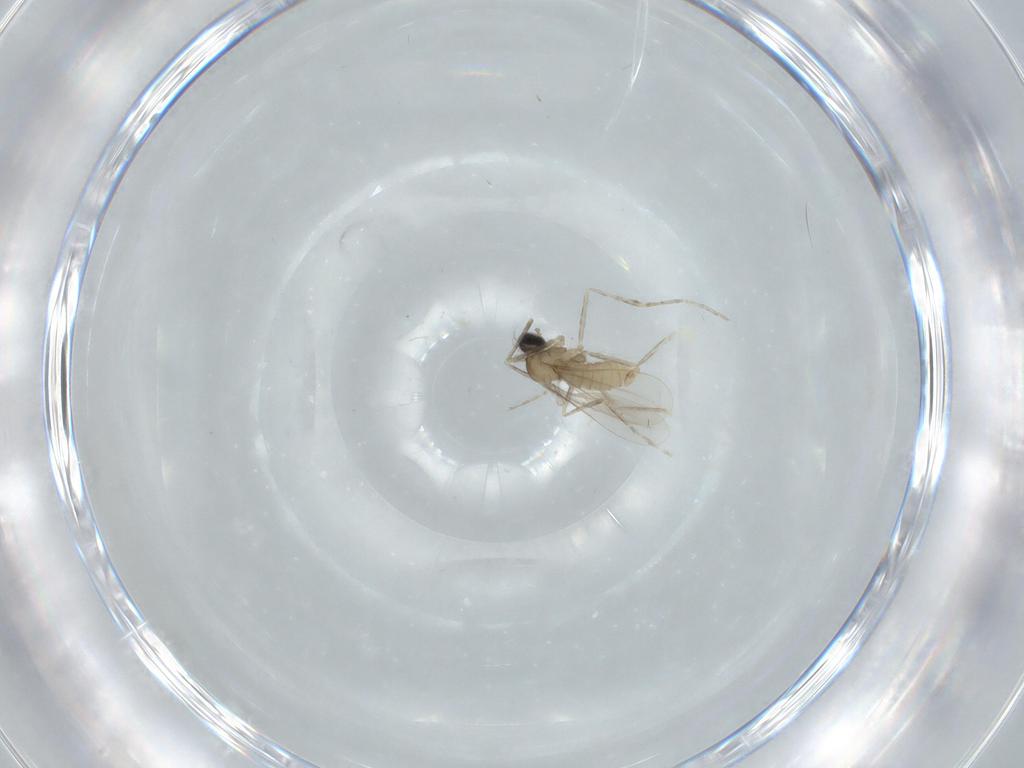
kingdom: Animalia
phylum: Arthropoda
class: Insecta
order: Diptera
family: Ceratopogonidae
